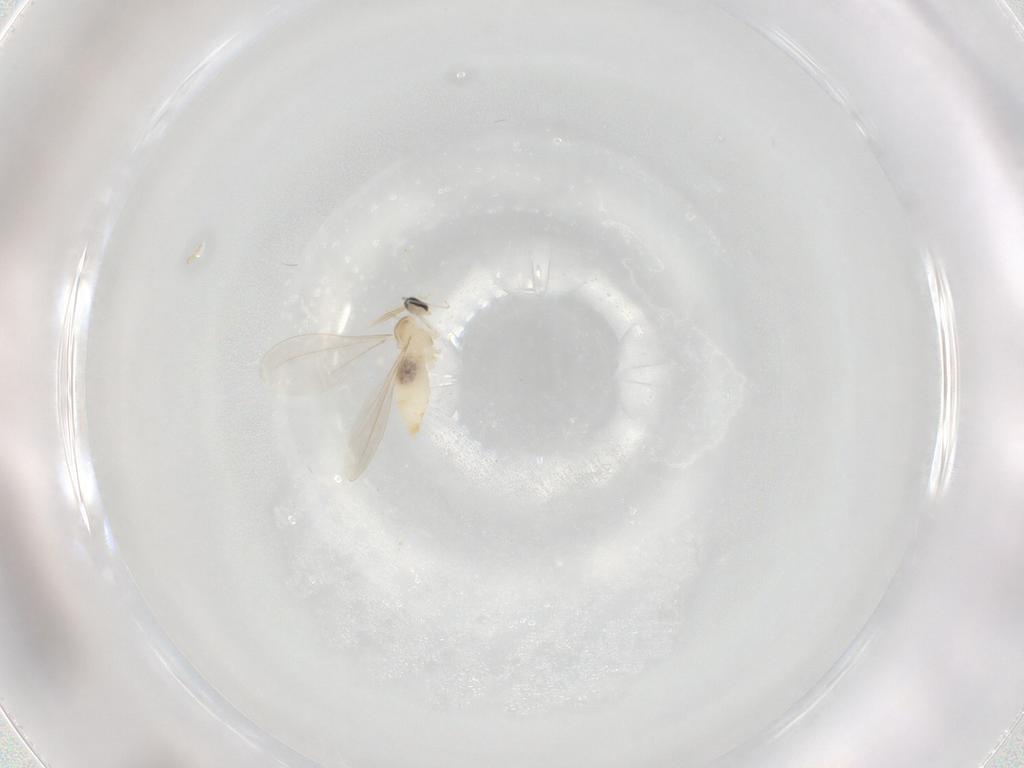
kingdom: Animalia
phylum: Arthropoda
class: Insecta
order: Diptera
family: Cecidomyiidae
